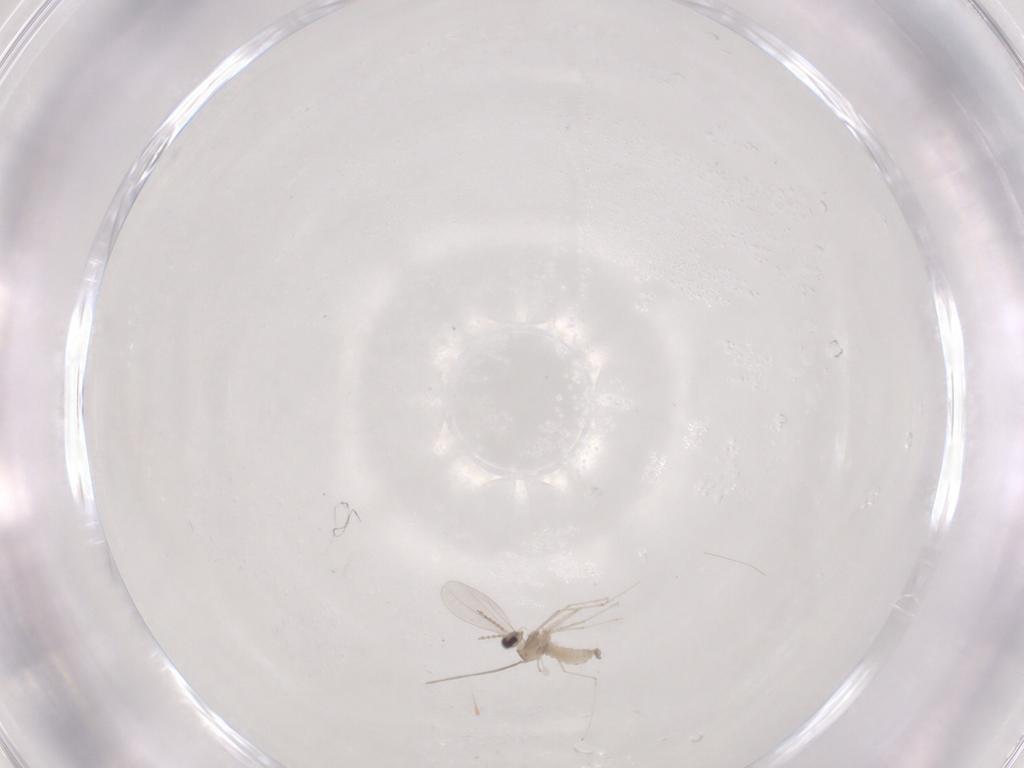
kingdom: Animalia
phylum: Arthropoda
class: Insecta
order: Diptera
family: Cecidomyiidae
